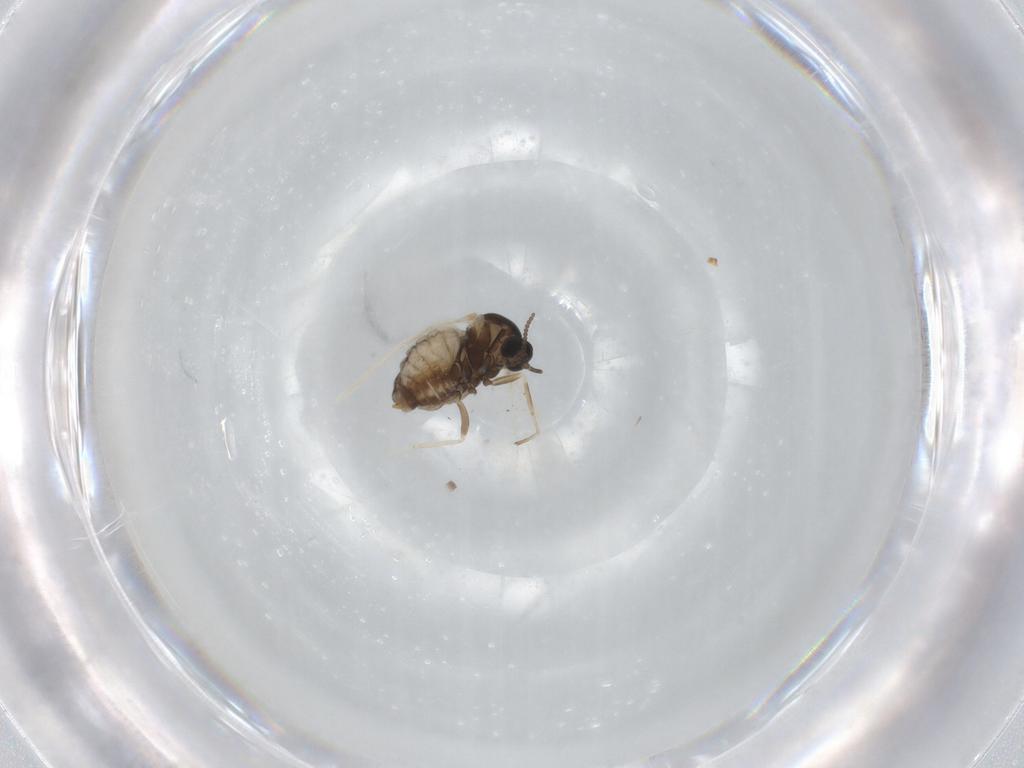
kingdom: Animalia
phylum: Arthropoda
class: Insecta
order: Diptera
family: Cecidomyiidae
